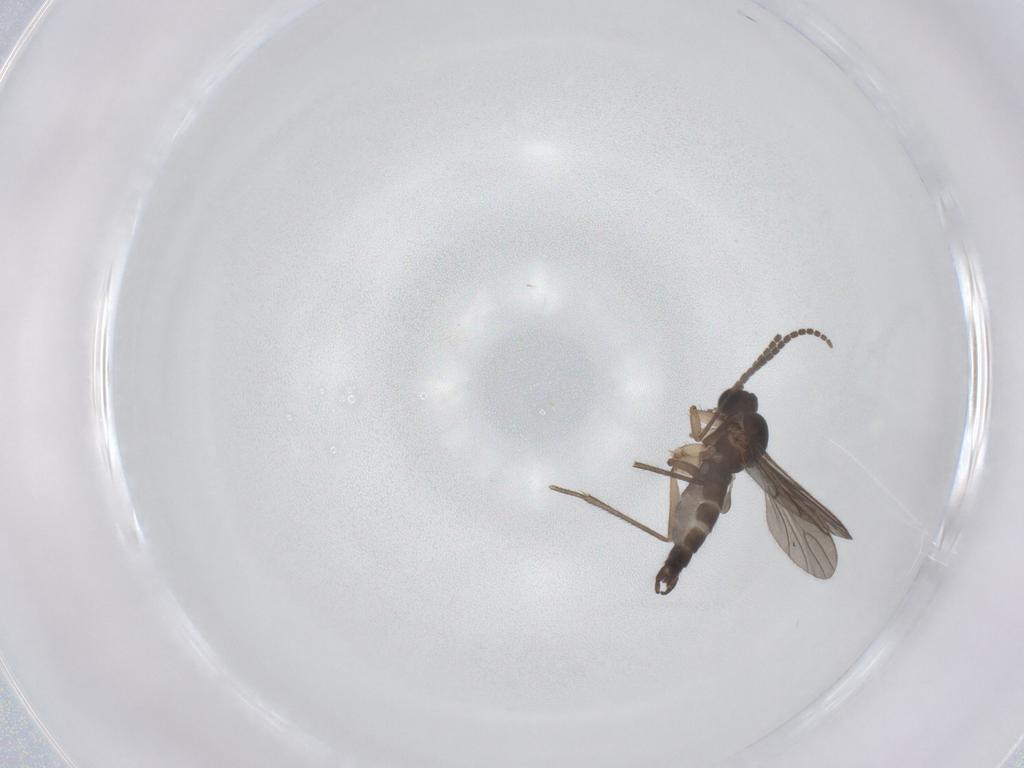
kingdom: Animalia
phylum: Arthropoda
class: Insecta
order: Diptera
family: Sciaridae
